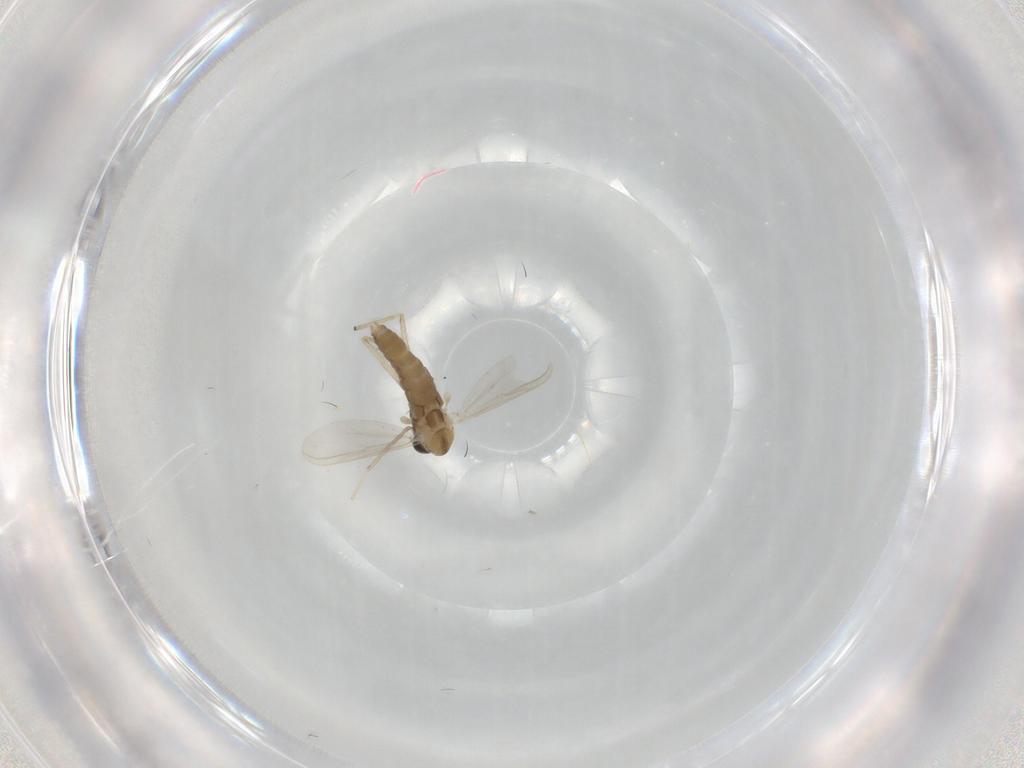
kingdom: Animalia
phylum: Arthropoda
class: Insecta
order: Diptera
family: Chironomidae
